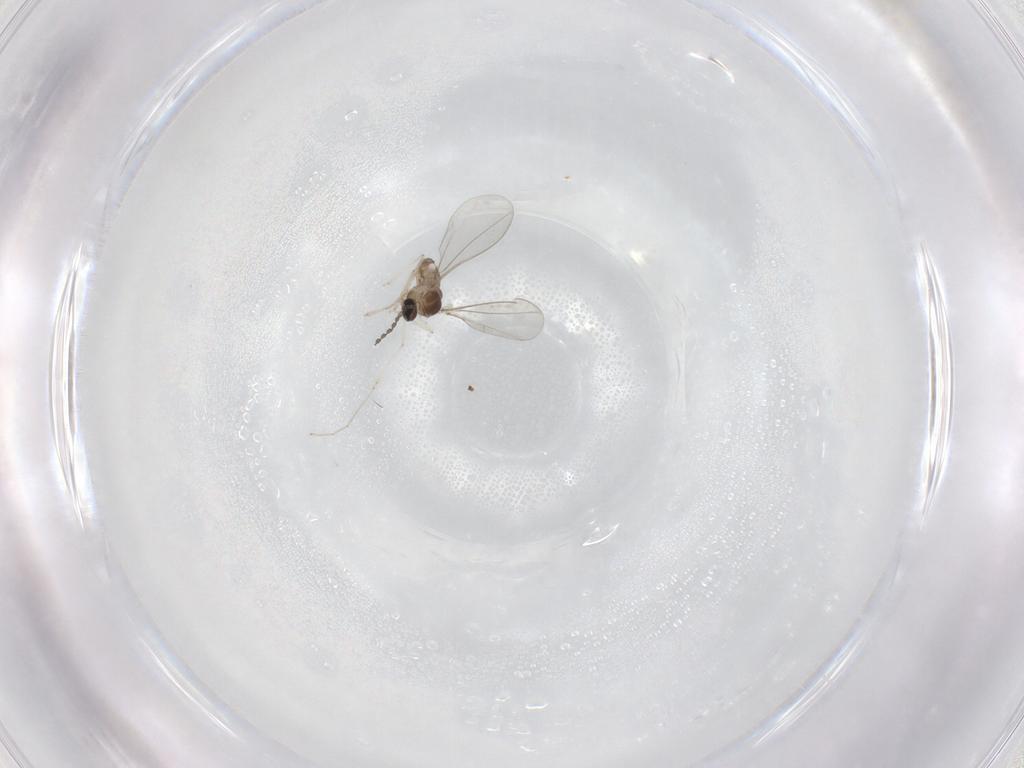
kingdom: Animalia
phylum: Arthropoda
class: Insecta
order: Diptera
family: Cecidomyiidae
